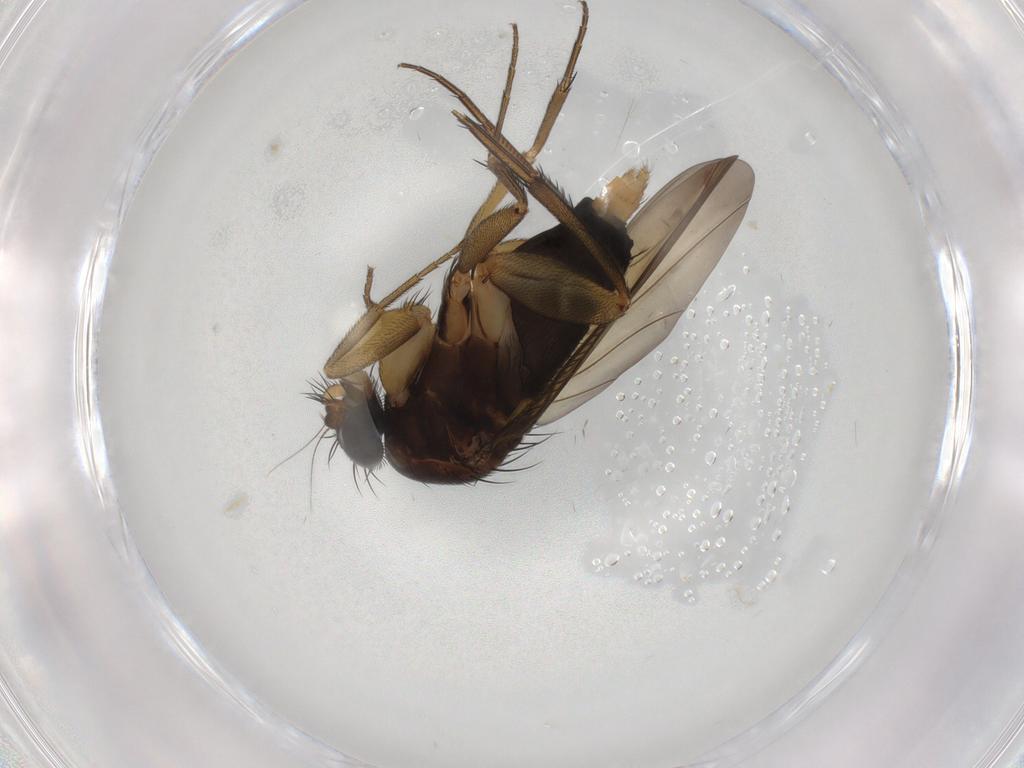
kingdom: Animalia
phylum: Arthropoda
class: Insecta
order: Diptera
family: Phoridae
